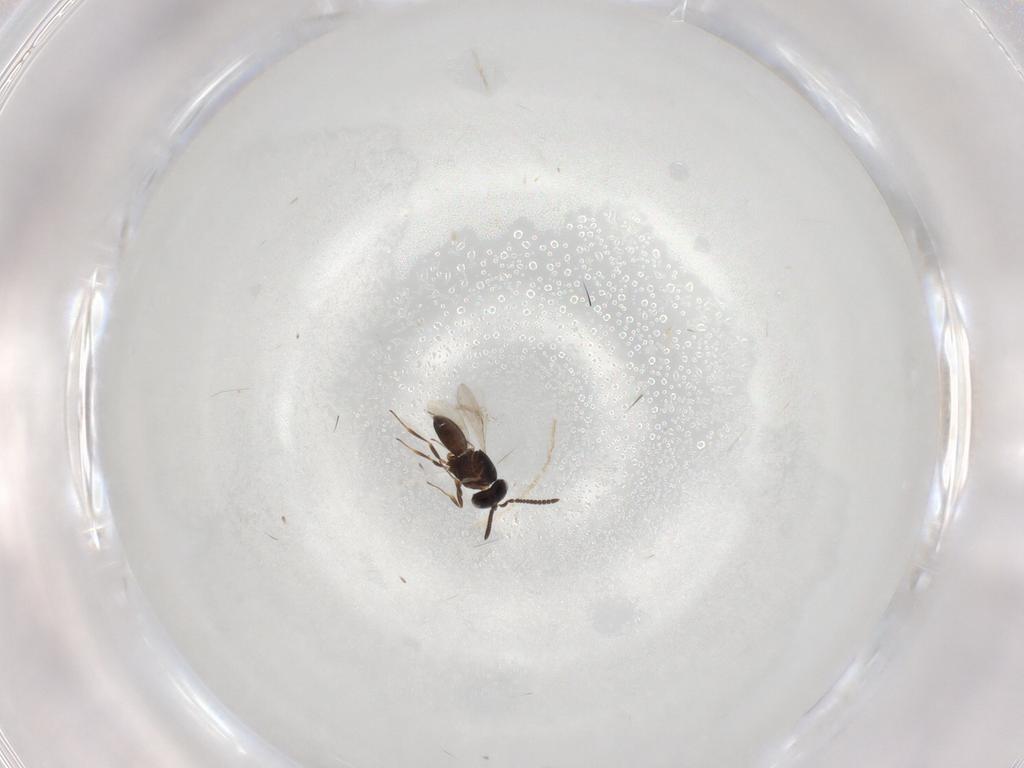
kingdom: Animalia
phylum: Arthropoda
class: Insecta
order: Hymenoptera
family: Scelionidae
